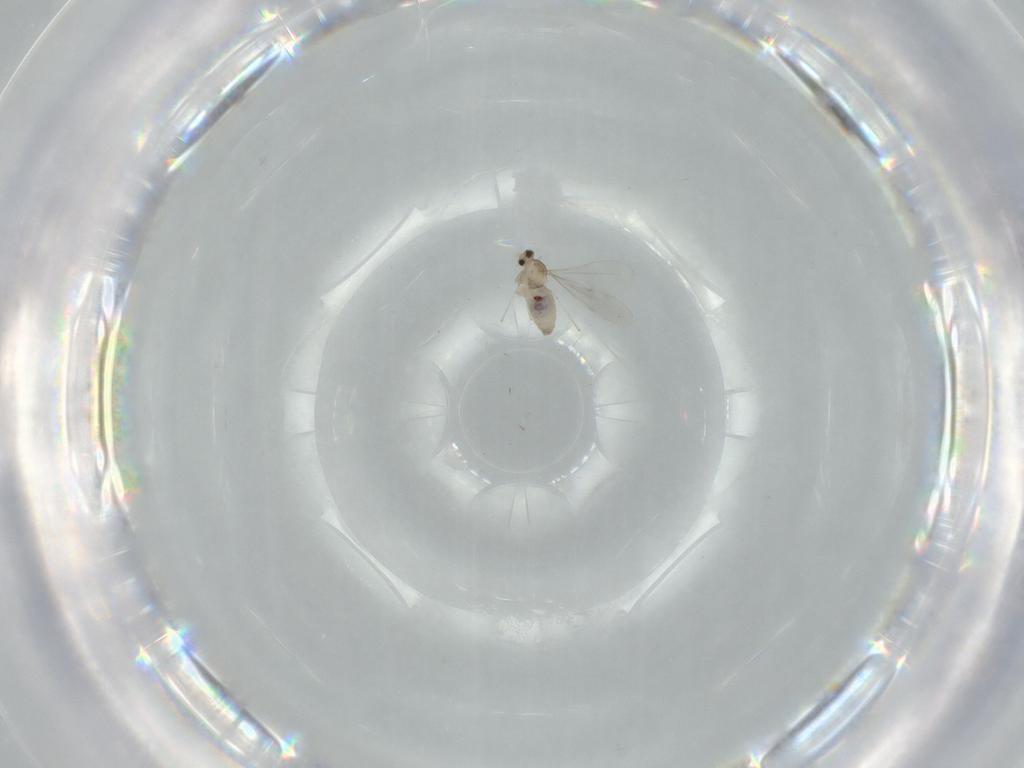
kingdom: Animalia
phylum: Arthropoda
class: Insecta
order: Diptera
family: Cecidomyiidae
